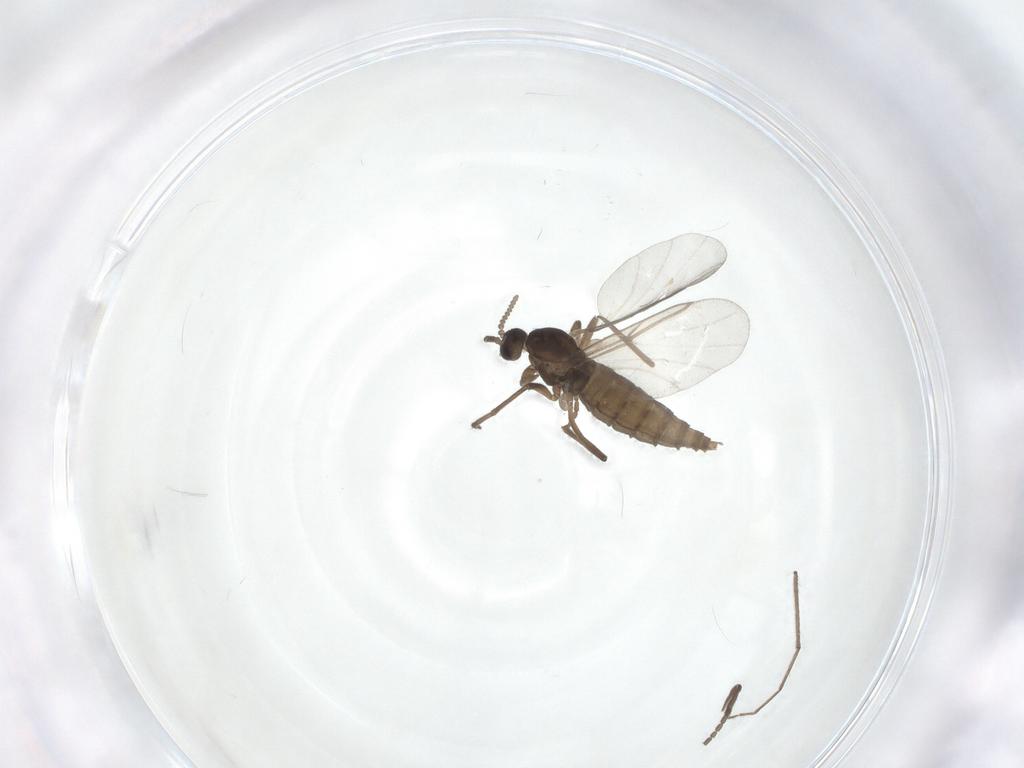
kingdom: Animalia
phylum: Arthropoda
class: Insecta
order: Diptera
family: Cecidomyiidae
